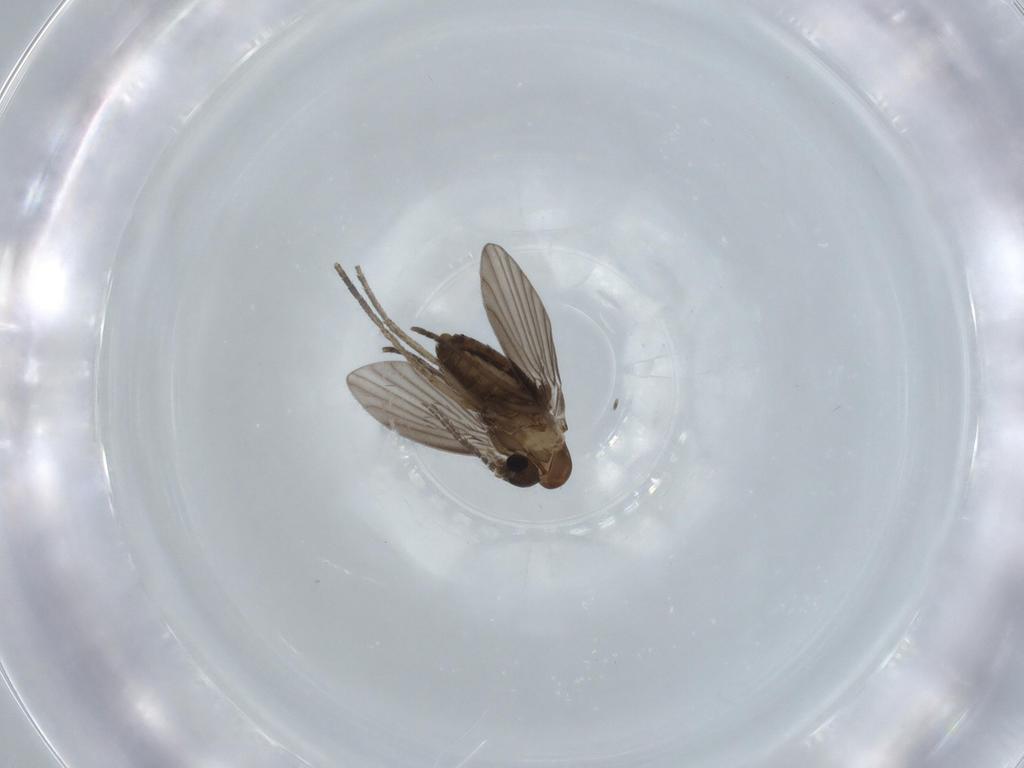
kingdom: Animalia
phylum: Arthropoda
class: Insecta
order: Diptera
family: Psychodidae
